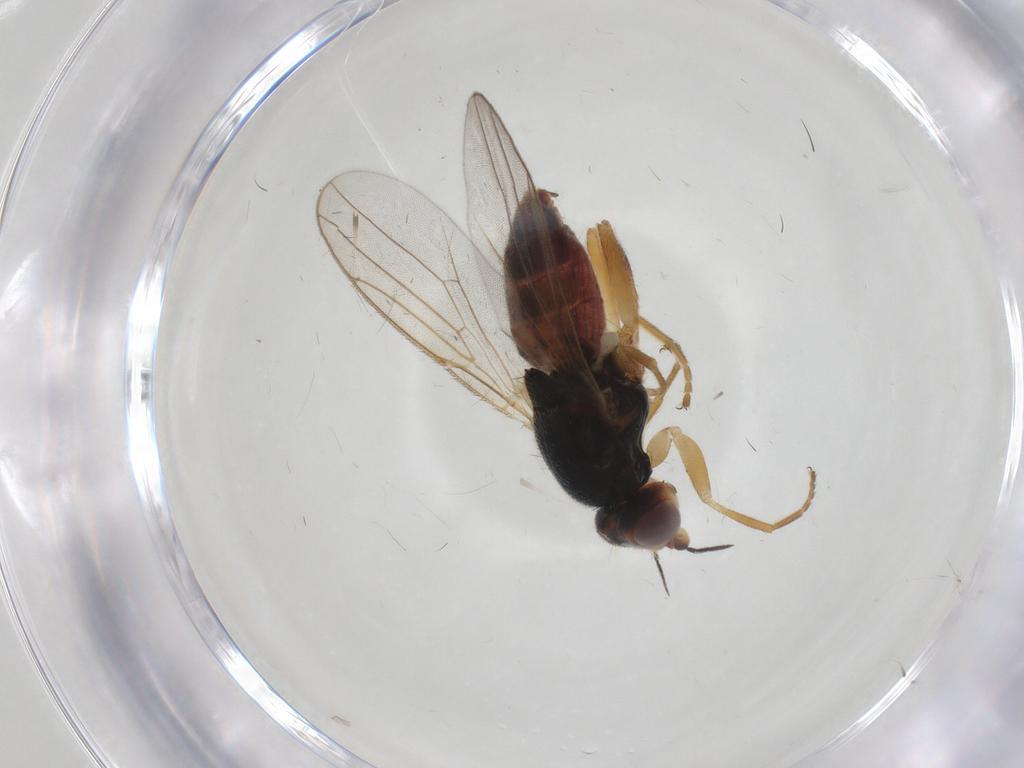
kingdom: Animalia
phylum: Arthropoda
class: Insecta
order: Diptera
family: Chloropidae
